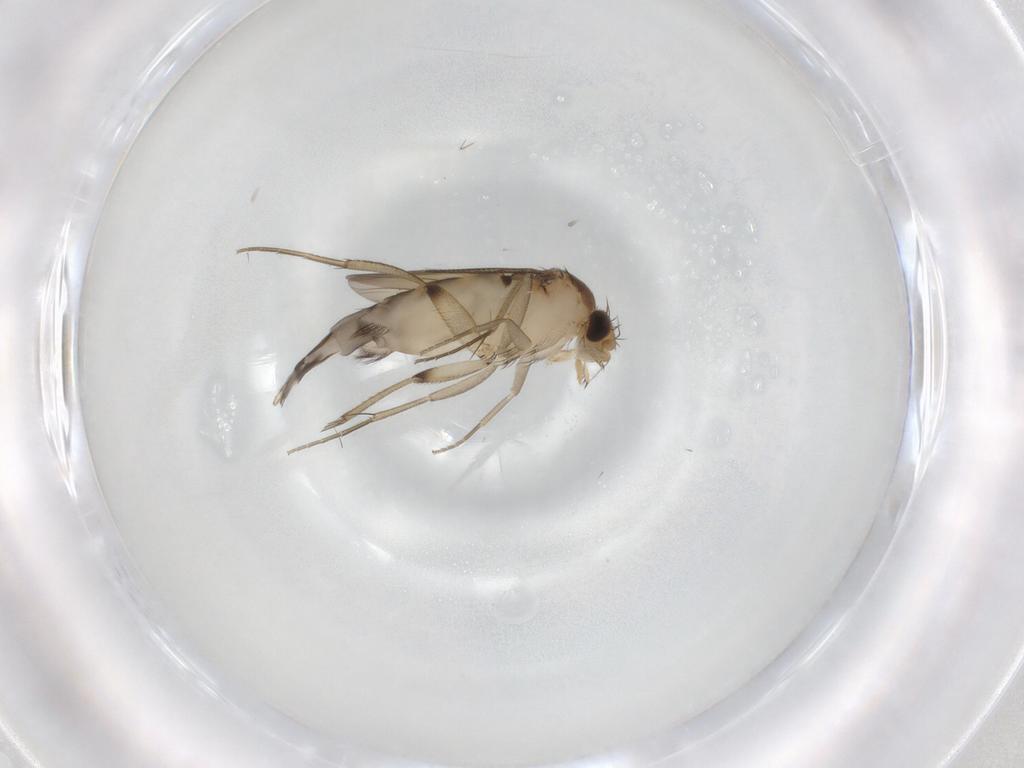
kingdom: Animalia
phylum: Arthropoda
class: Insecta
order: Diptera
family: Phoridae
